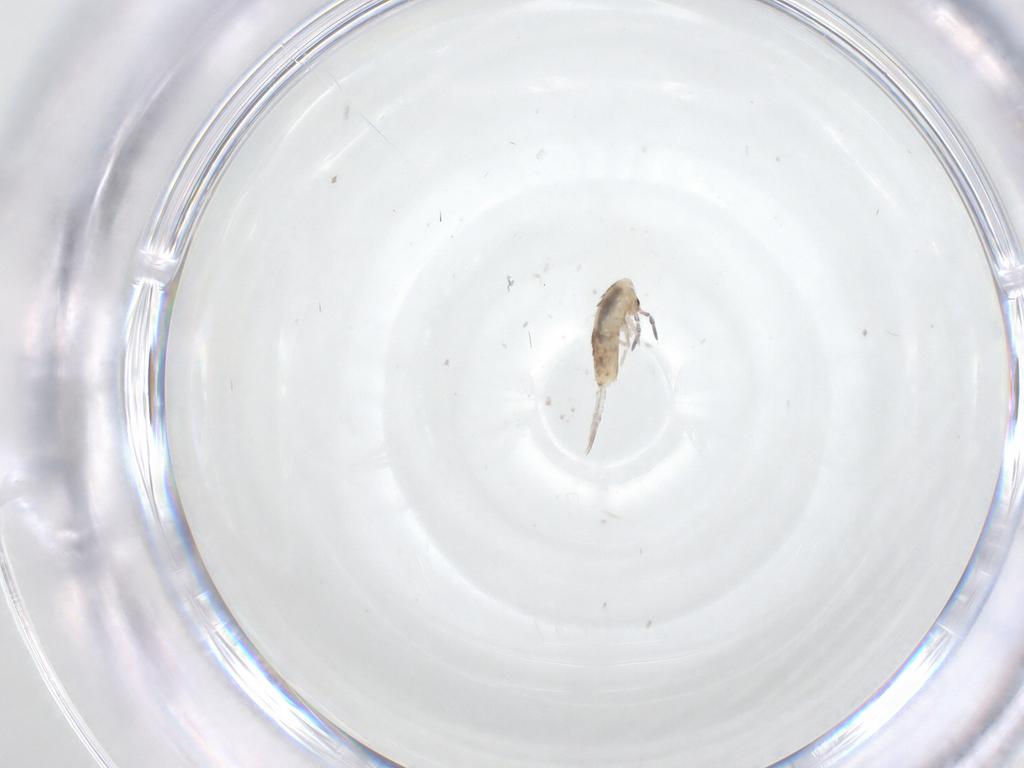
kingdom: Animalia
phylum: Arthropoda
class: Collembola
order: Entomobryomorpha
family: Entomobryidae
